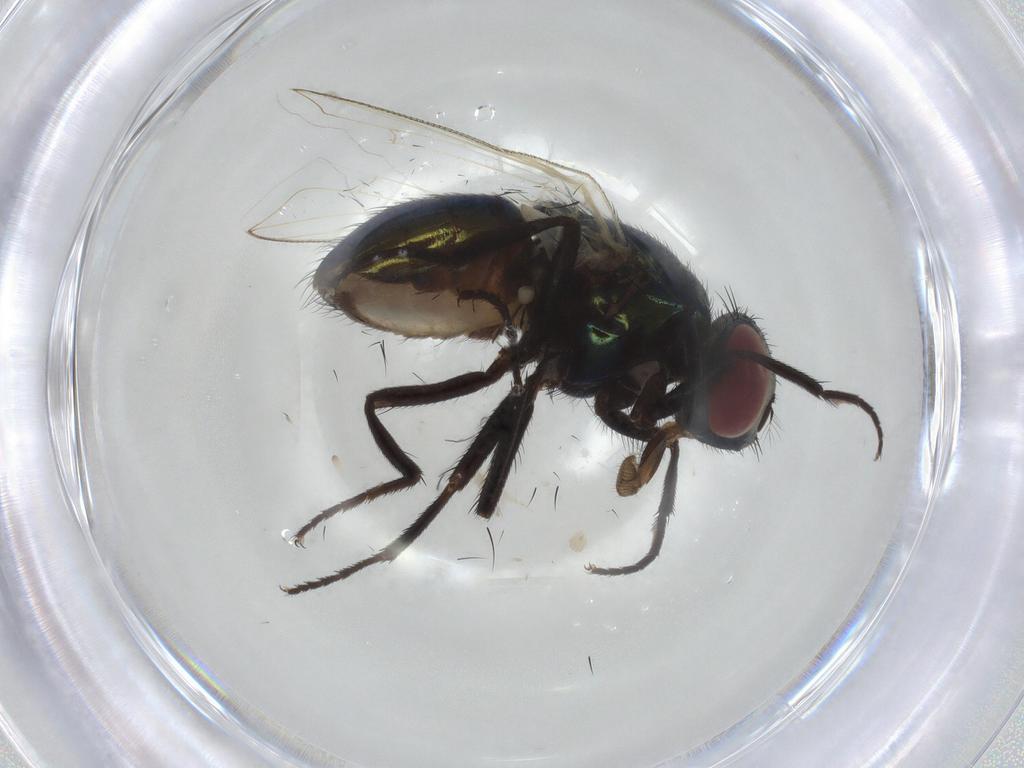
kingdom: Animalia
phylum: Arthropoda
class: Insecta
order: Diptera
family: Muscidae
